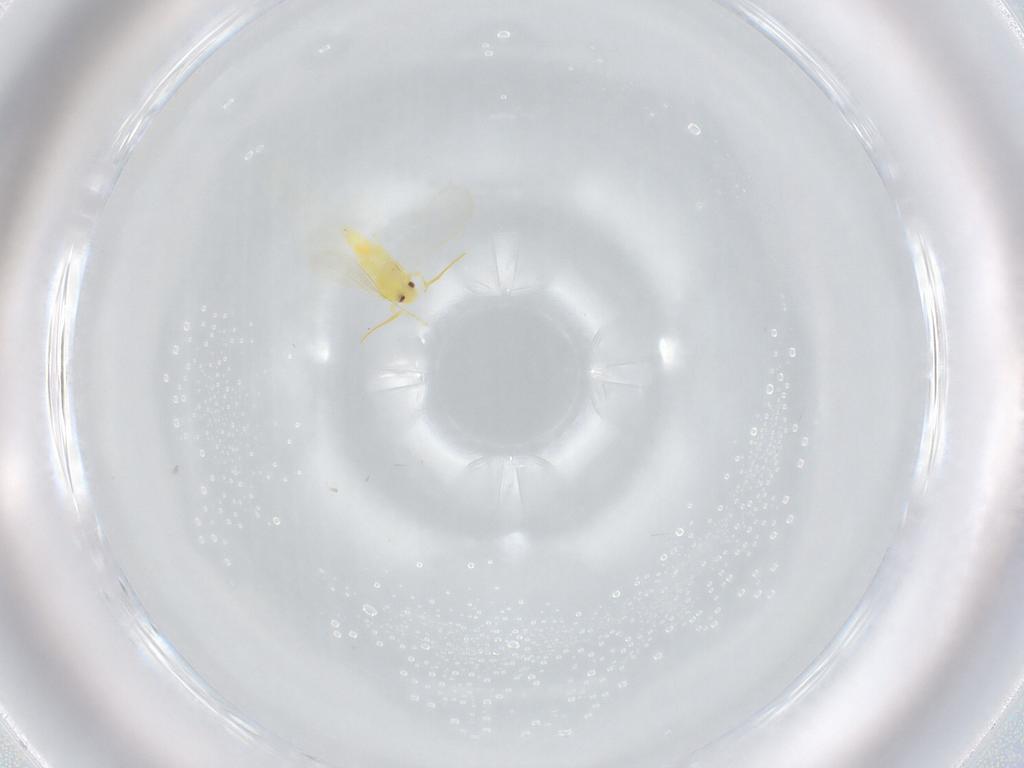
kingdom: Animalia
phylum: Arthropoda
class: Insecta
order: Hemiptera
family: Aleyrodidae
